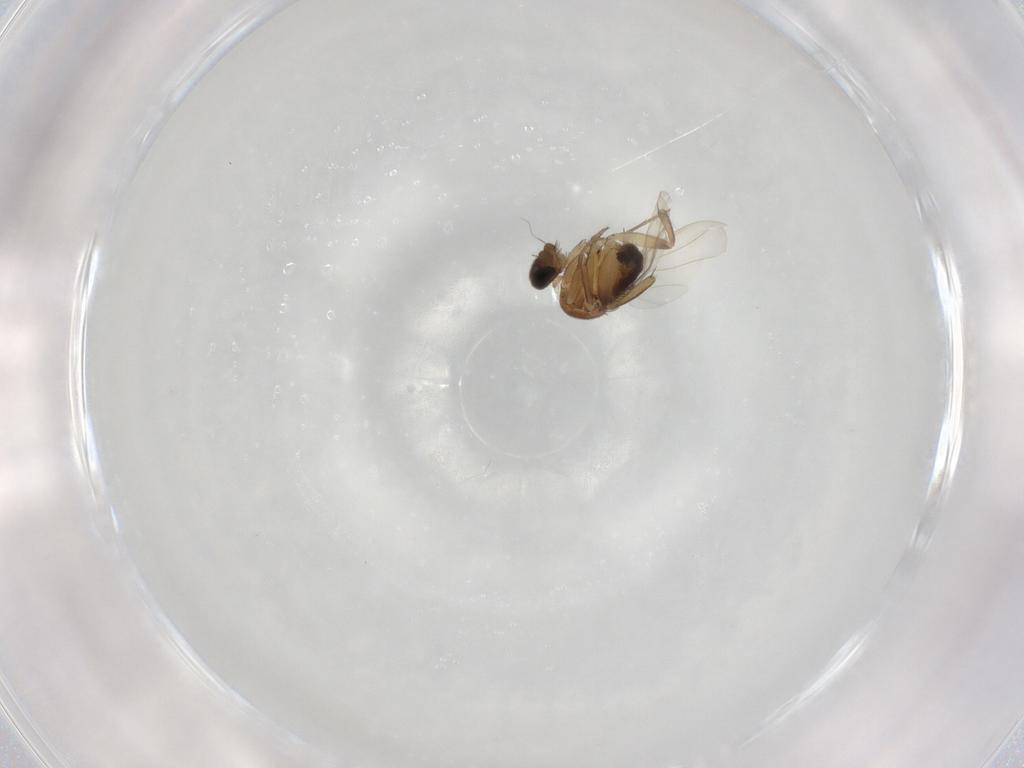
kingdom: Animalia
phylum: Arthropoda
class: Insecta
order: Diptera
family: Phoridae
